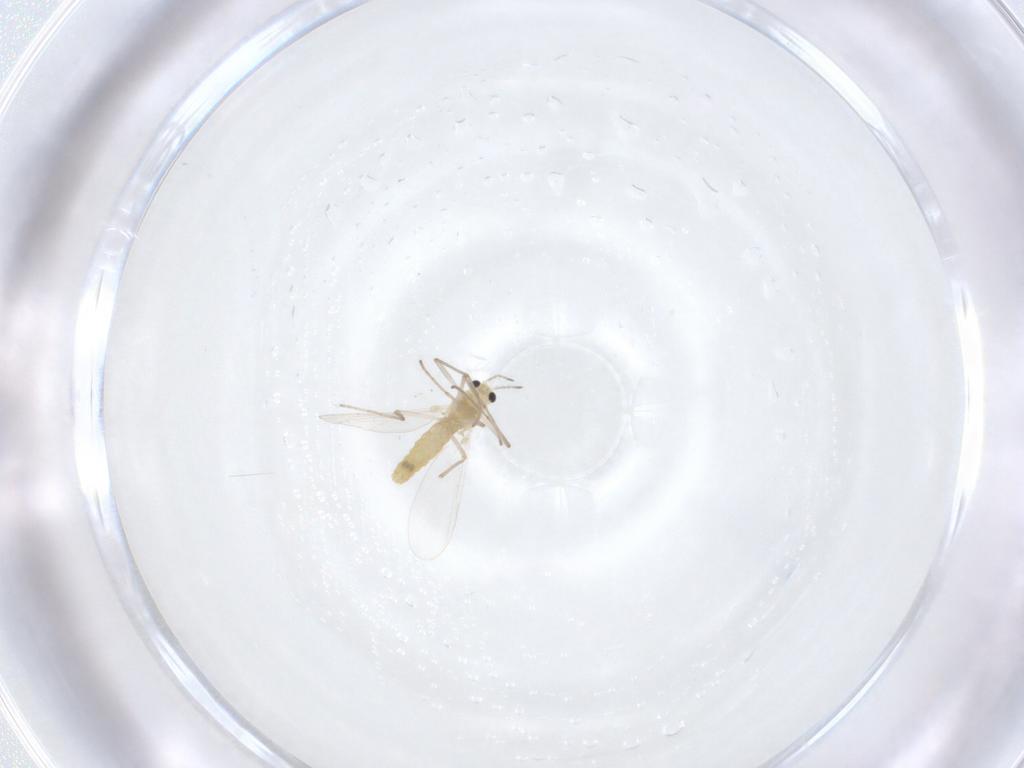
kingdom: Animalia
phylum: Arthropoda
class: Insecta
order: Diptera
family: Chironomidae
